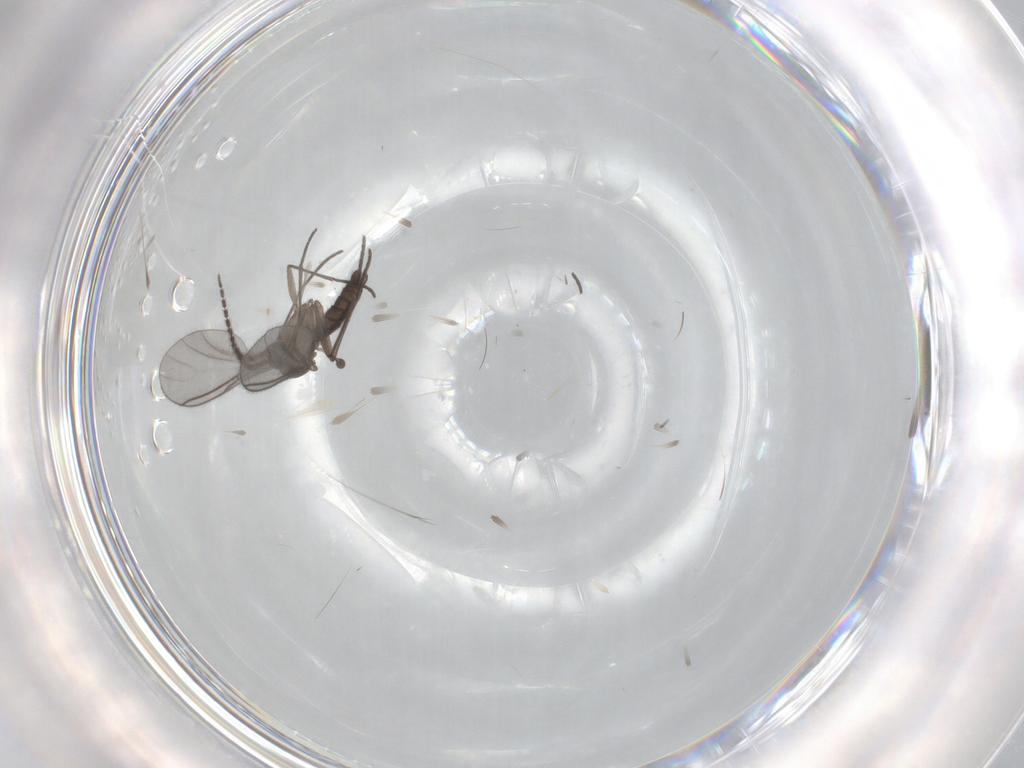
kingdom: Animalia
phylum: Arthropoda
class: Insecta
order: Diptera
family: Sciaridae
